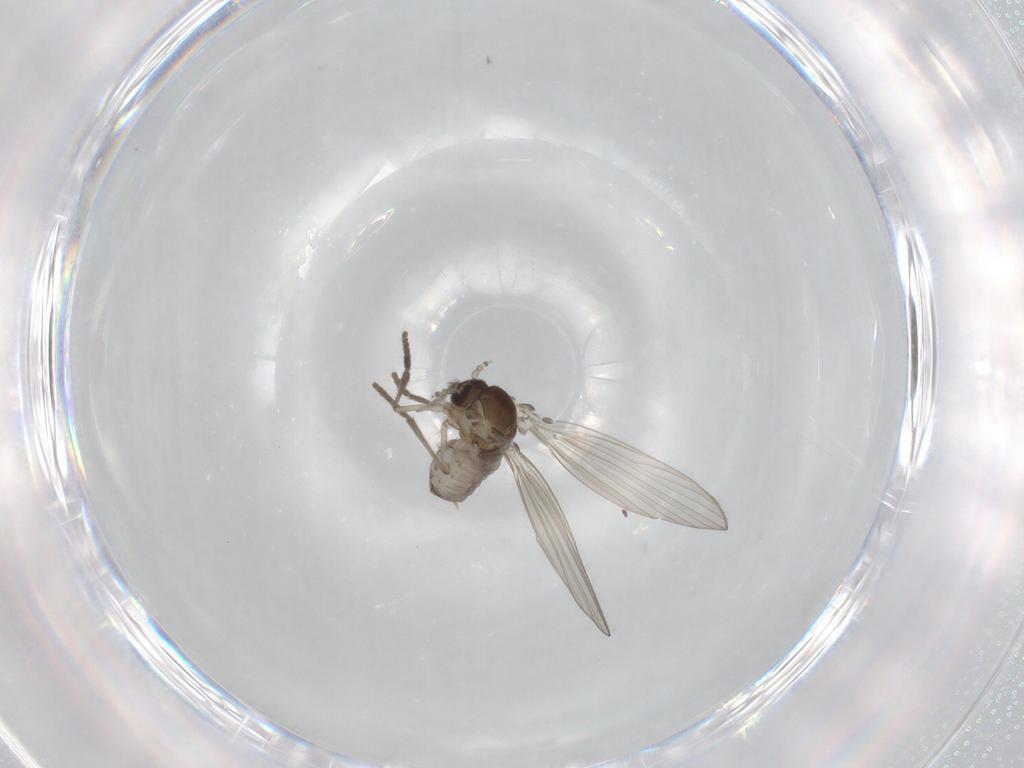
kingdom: Animalia
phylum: Arthropoda
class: Insecta
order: Diptera
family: Psychodidae
